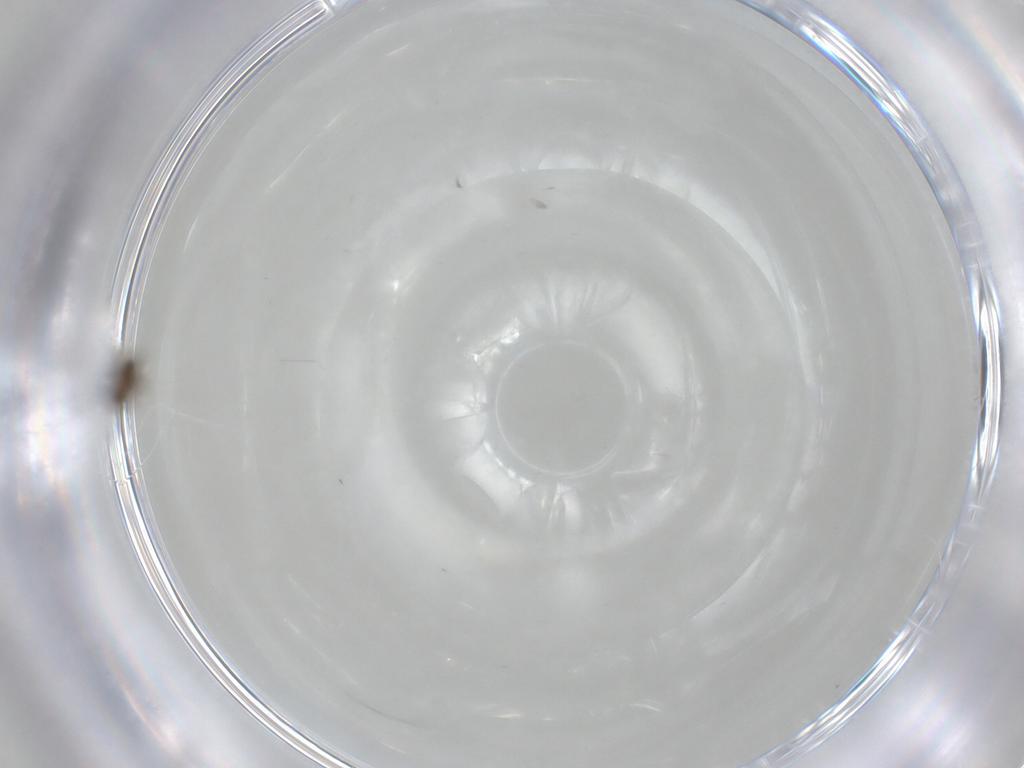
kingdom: Animalia
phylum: Arthropoda
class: Insecta
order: Diptera
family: Chironomidae
